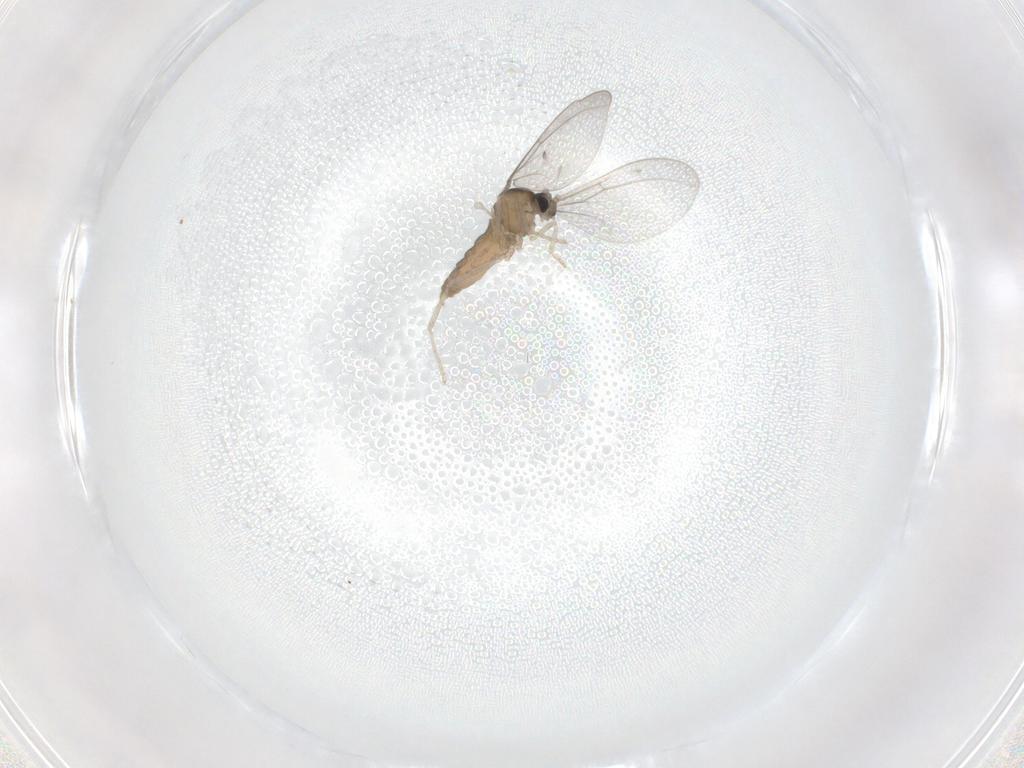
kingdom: Animalia
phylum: Arthropoda
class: Insecta
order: Diptera
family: Cecidomyiidae
